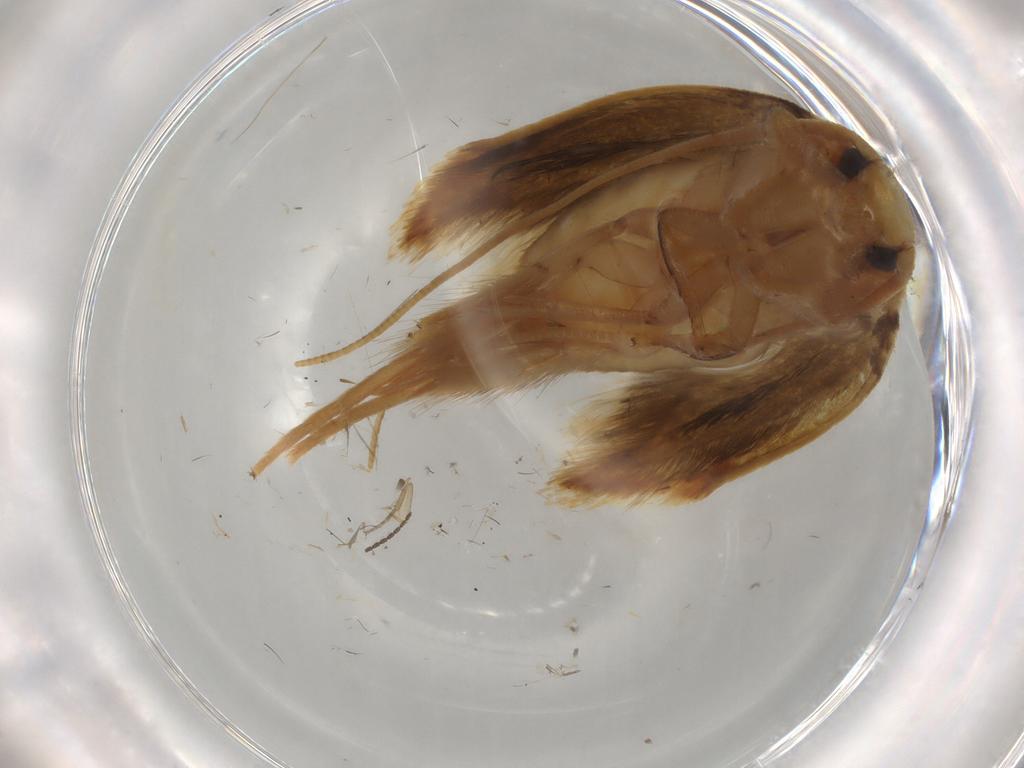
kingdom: Animalia
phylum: Arthropoda
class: Insecta
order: Lepidoptera
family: Tineidae
